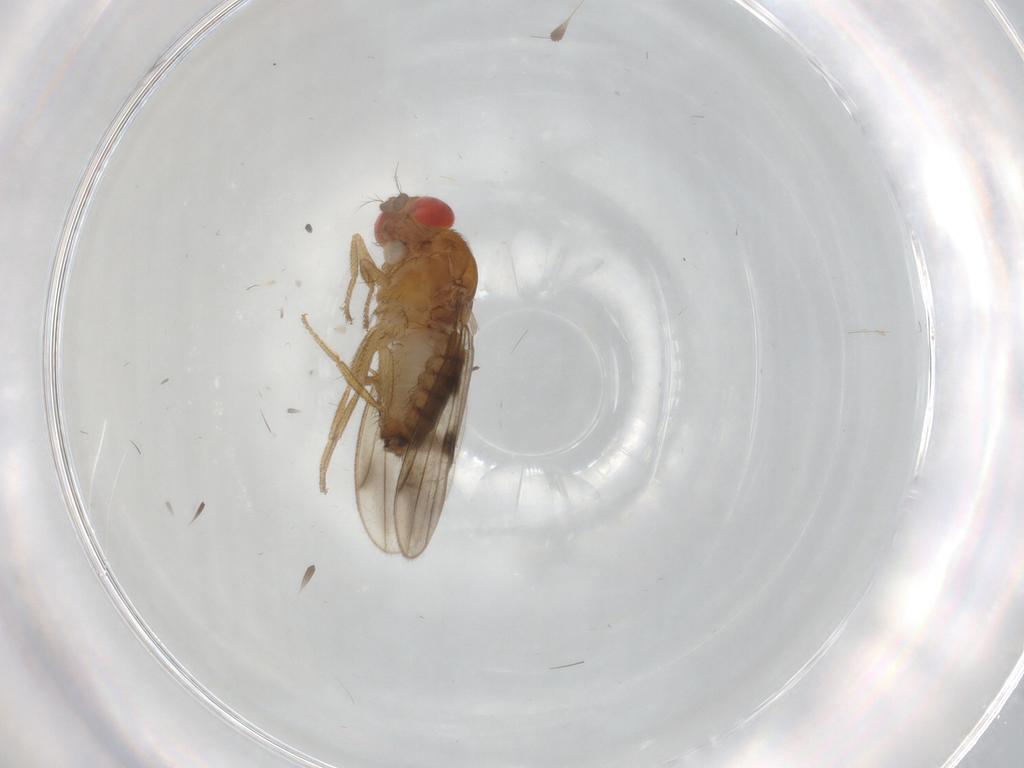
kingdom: Animalia
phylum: Arthropoda
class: Insecta
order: Diptera
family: Drosophilidae
